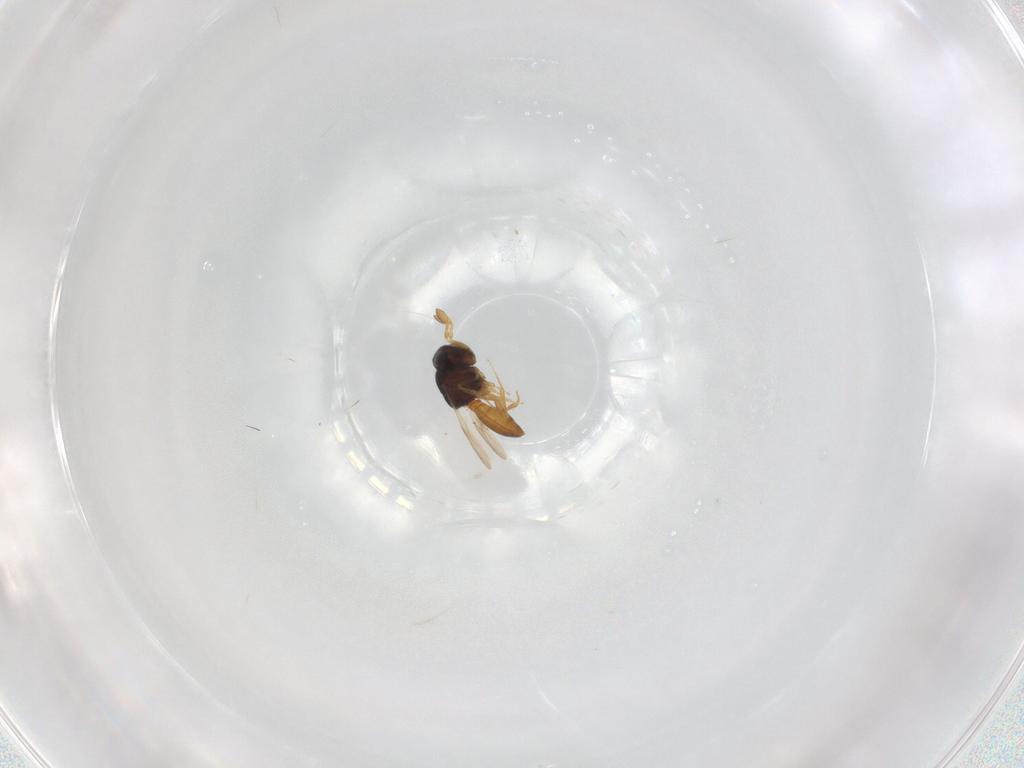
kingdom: Animalia
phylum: Arthropoda
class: Insecta
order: Hymenoptera
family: Scelionidae
